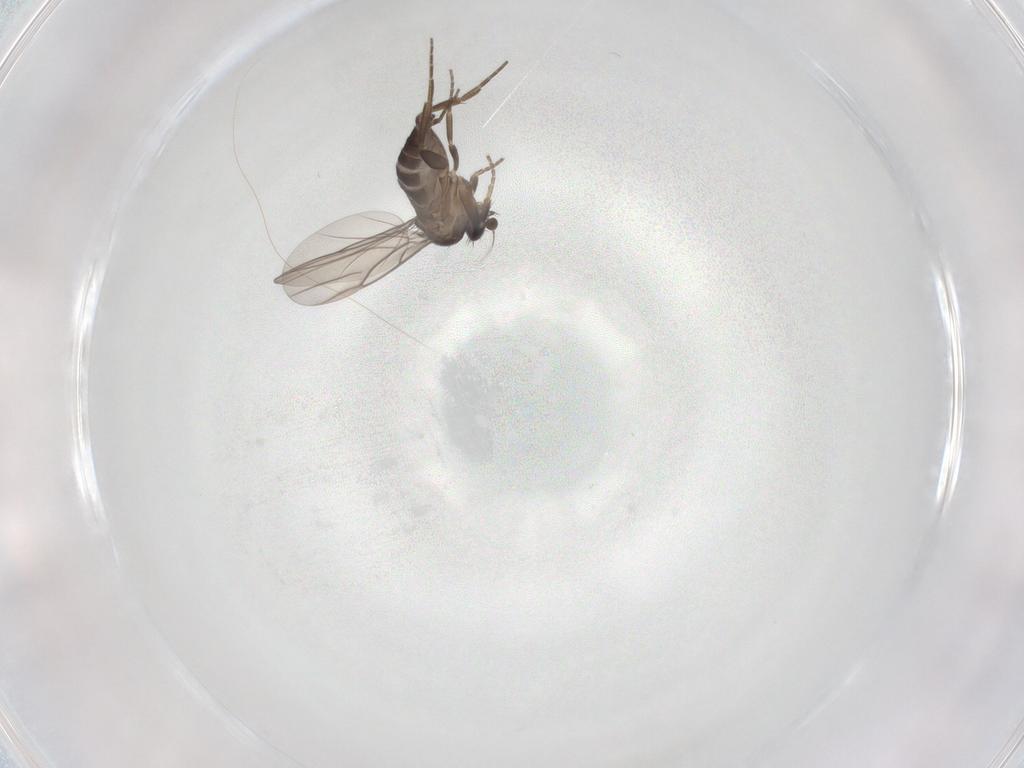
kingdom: Animalia
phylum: Arthropoda
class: Insecta
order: Diptera
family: Phoridae
